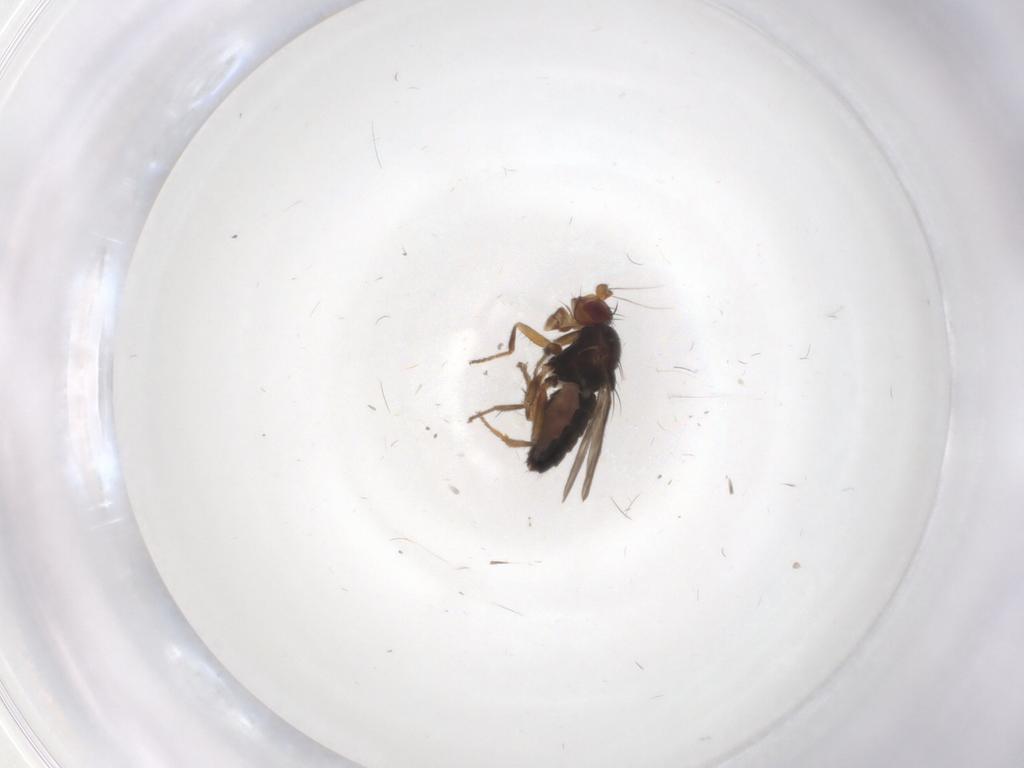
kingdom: Animalia
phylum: Arthropoda
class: Insecta
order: Diptera
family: Sphaeroceridae
